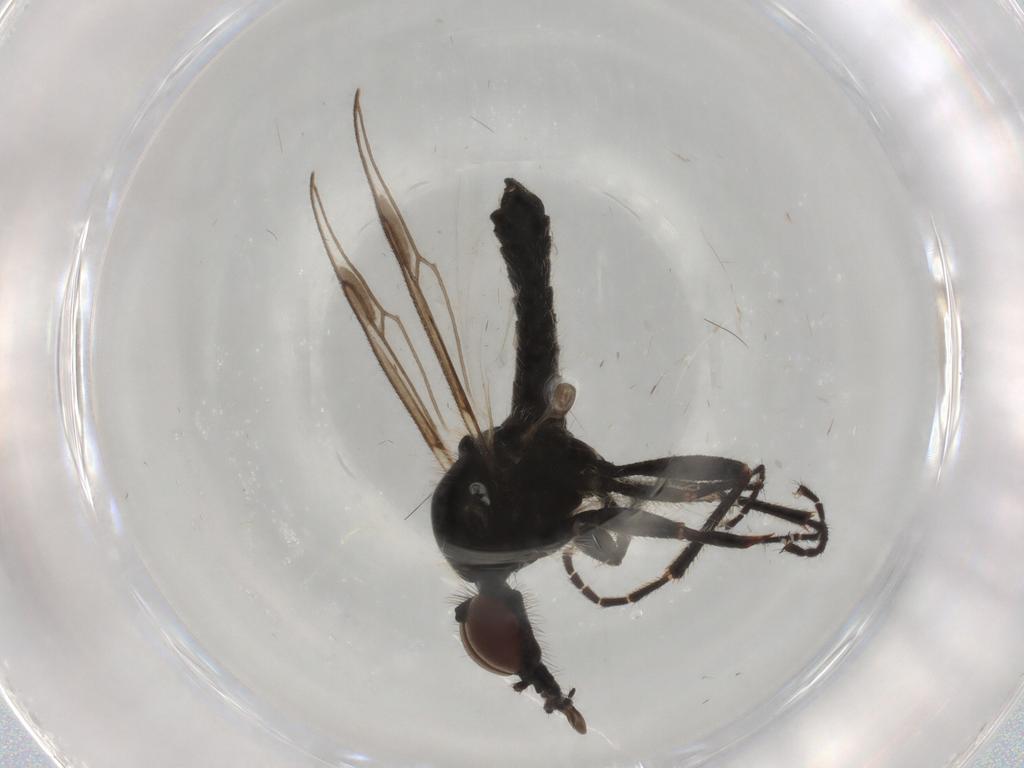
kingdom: Animalia
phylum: Arthropoda
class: Insecta
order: Diptera
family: Bibionidae
